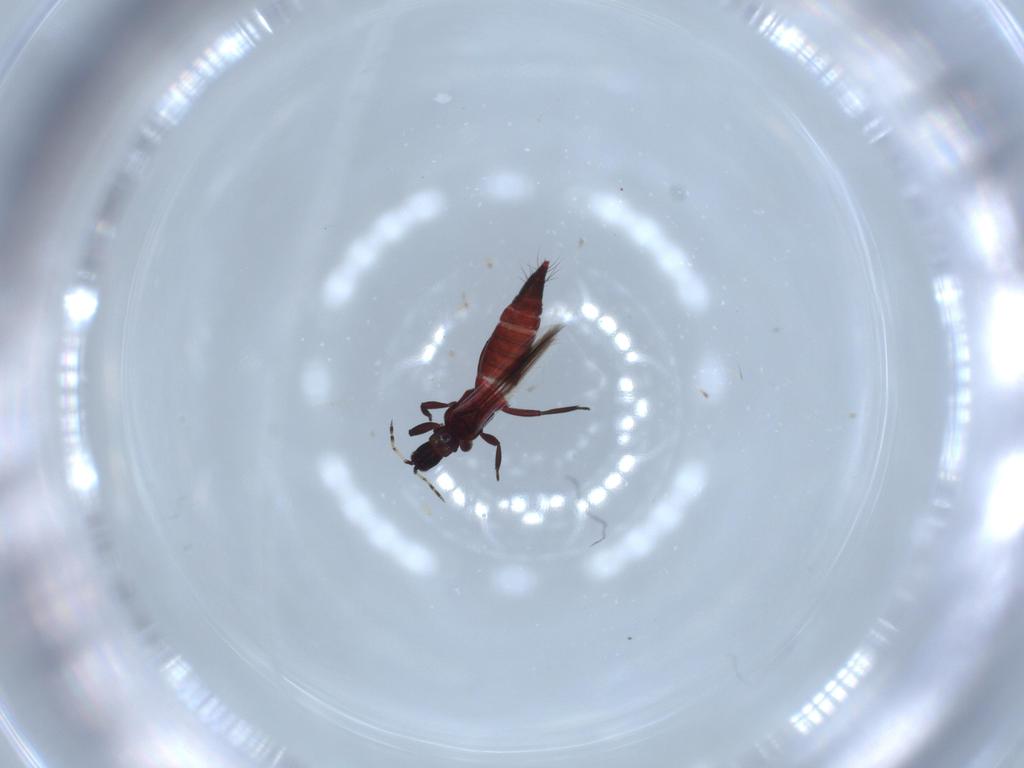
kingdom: Animalia
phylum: Arthropoda
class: Insecta
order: Thysanoptera
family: Aeolothripidae
